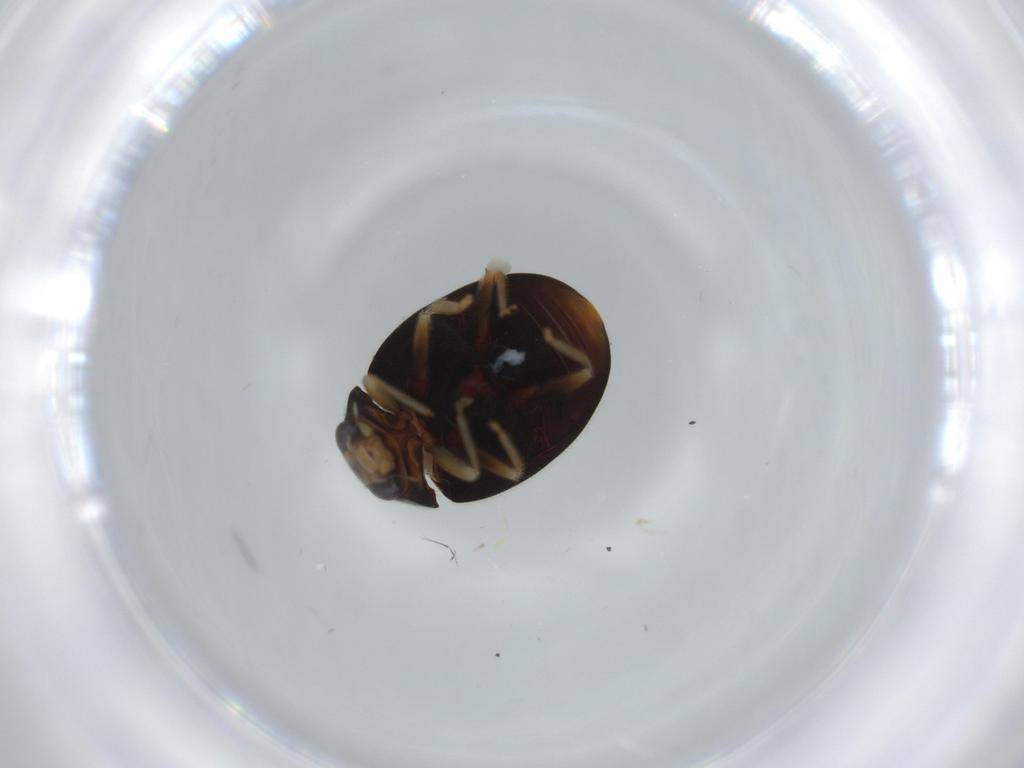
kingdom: Animalia
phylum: Arthropoda
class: Insecta
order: Coleoptera
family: Coccinellidae
